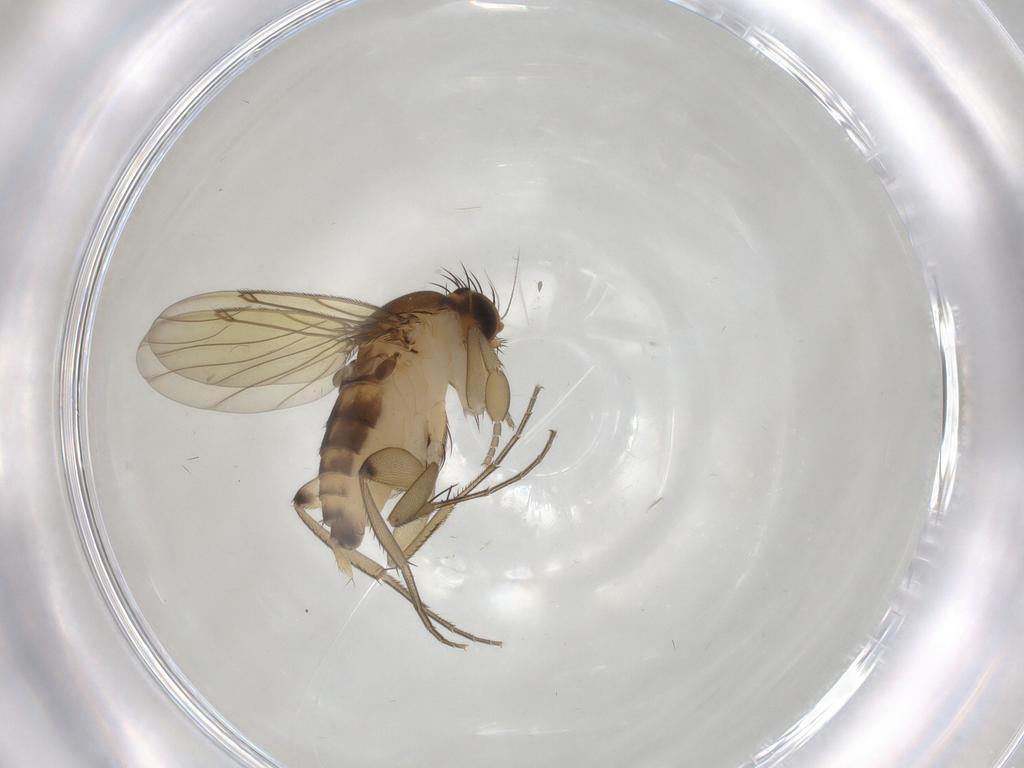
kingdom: Animalia
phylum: Arthropoda
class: Insecta
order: Diptera
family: Phoridae
